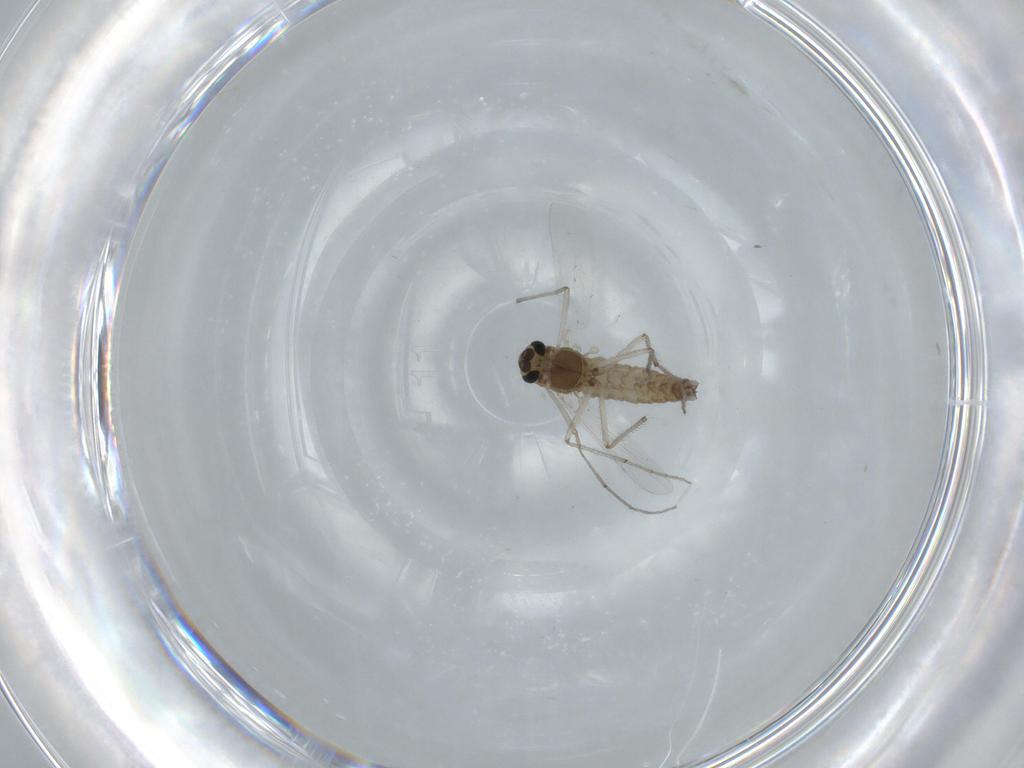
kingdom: Animalia
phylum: Arthropoda
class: Insecta
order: Diptera
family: Chironomidae
